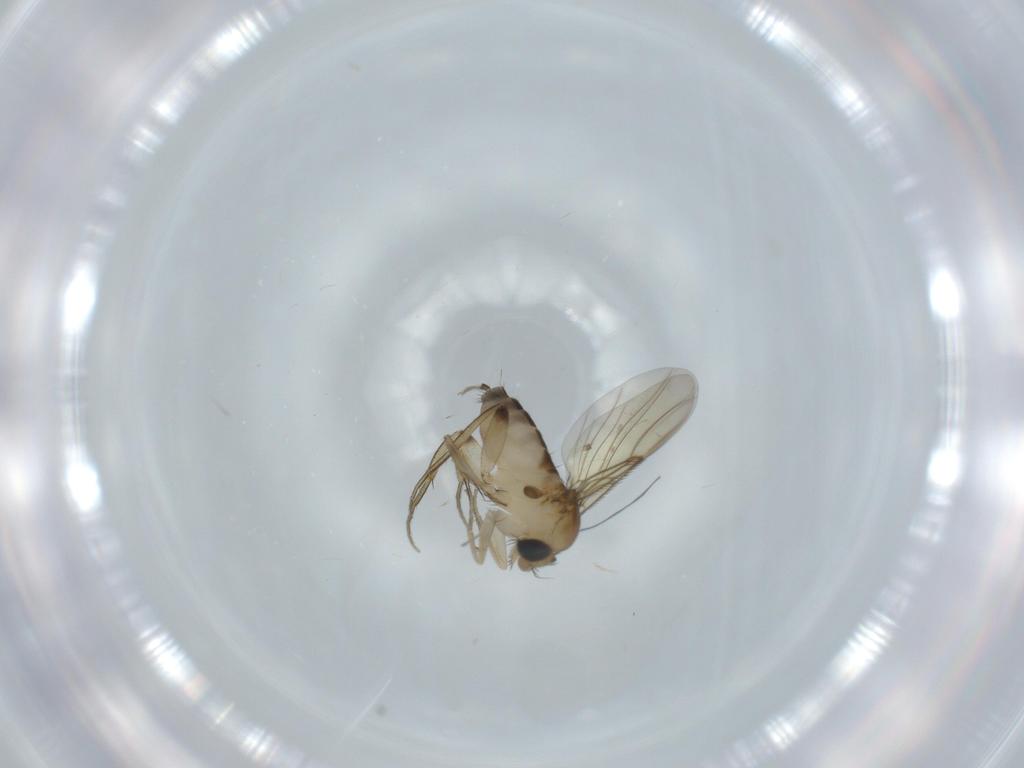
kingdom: Animalia
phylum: Arthropoda
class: Insecta
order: Diptera
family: Phoridae
